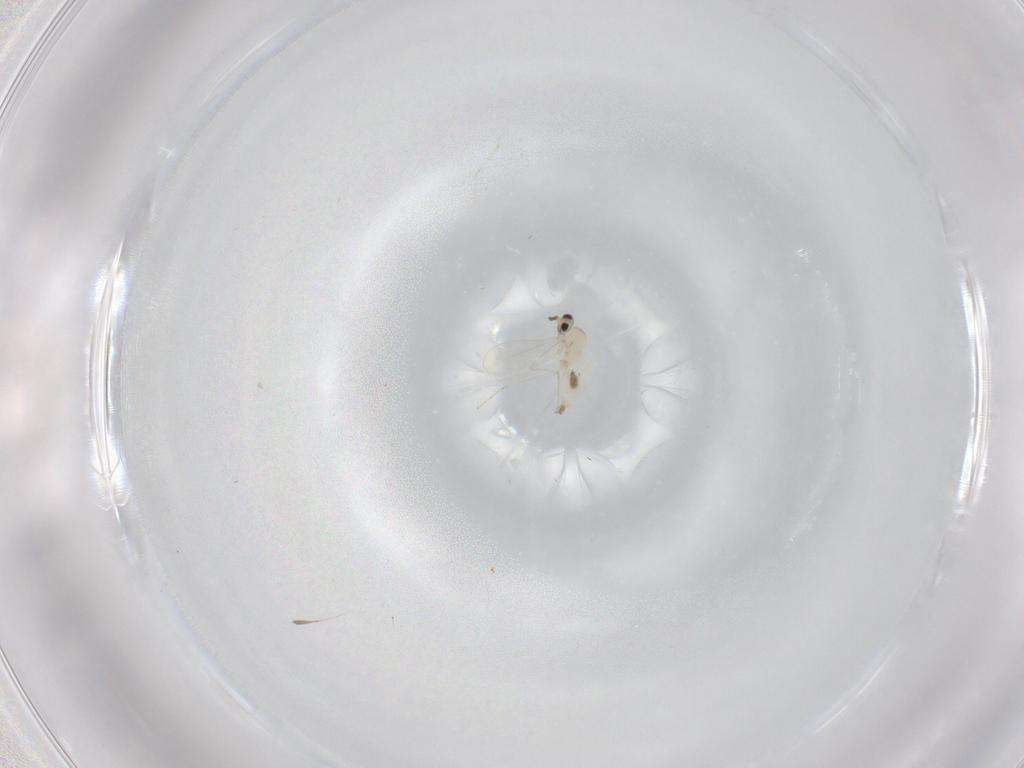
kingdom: Animalia
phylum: Arthropoda
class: Insecta
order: Diptera
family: Cecidomyiidae
